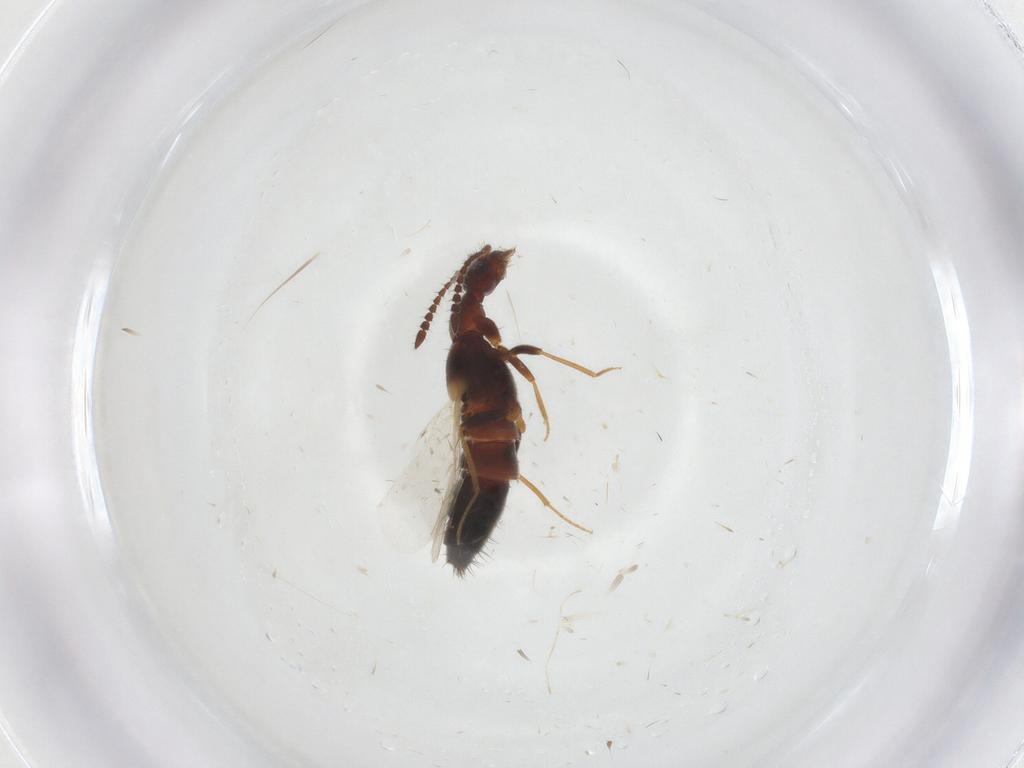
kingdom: Animalia
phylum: Arthropoda
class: Insecta
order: Coleoptera
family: Staphylinidae
